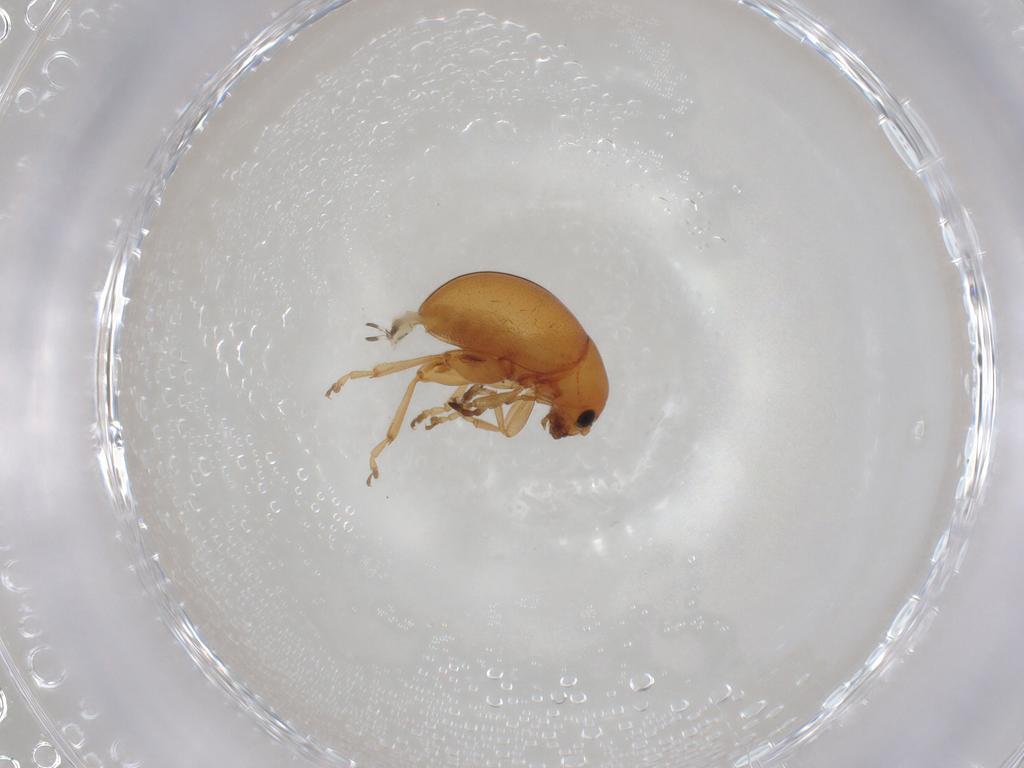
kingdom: Animalia
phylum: Arthropoda
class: Insecta
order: Coleoptera
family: Chrysomelidae
